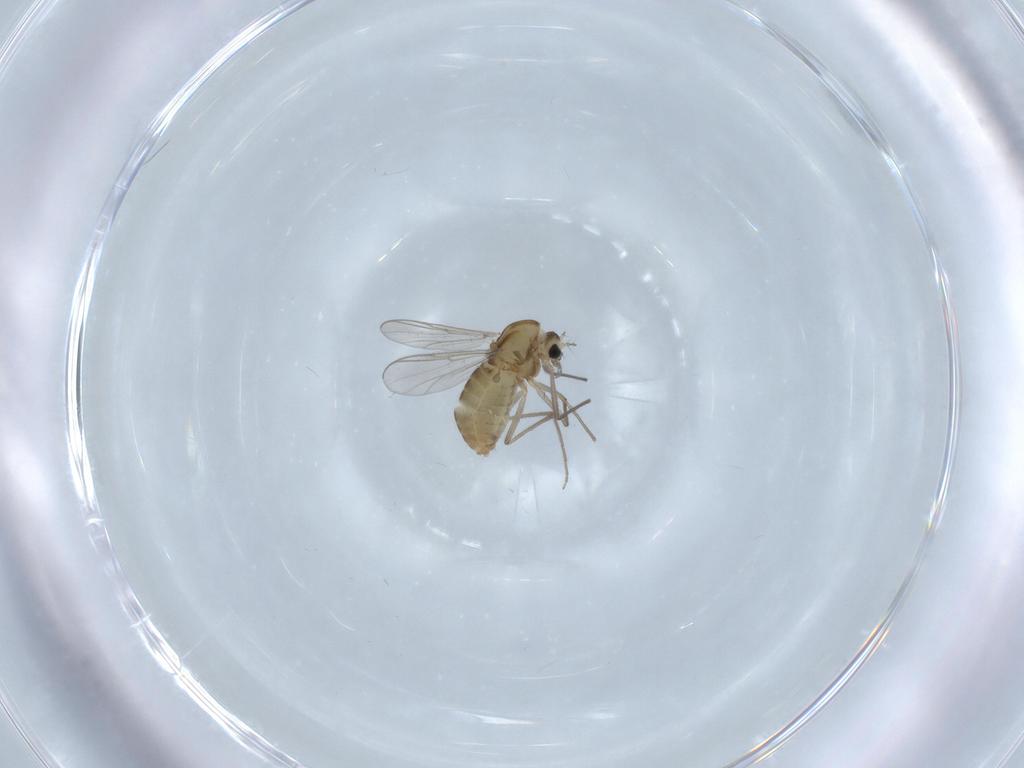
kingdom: Animalia
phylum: Arthropoda
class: Insecta
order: Diptera
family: Chironomidae
